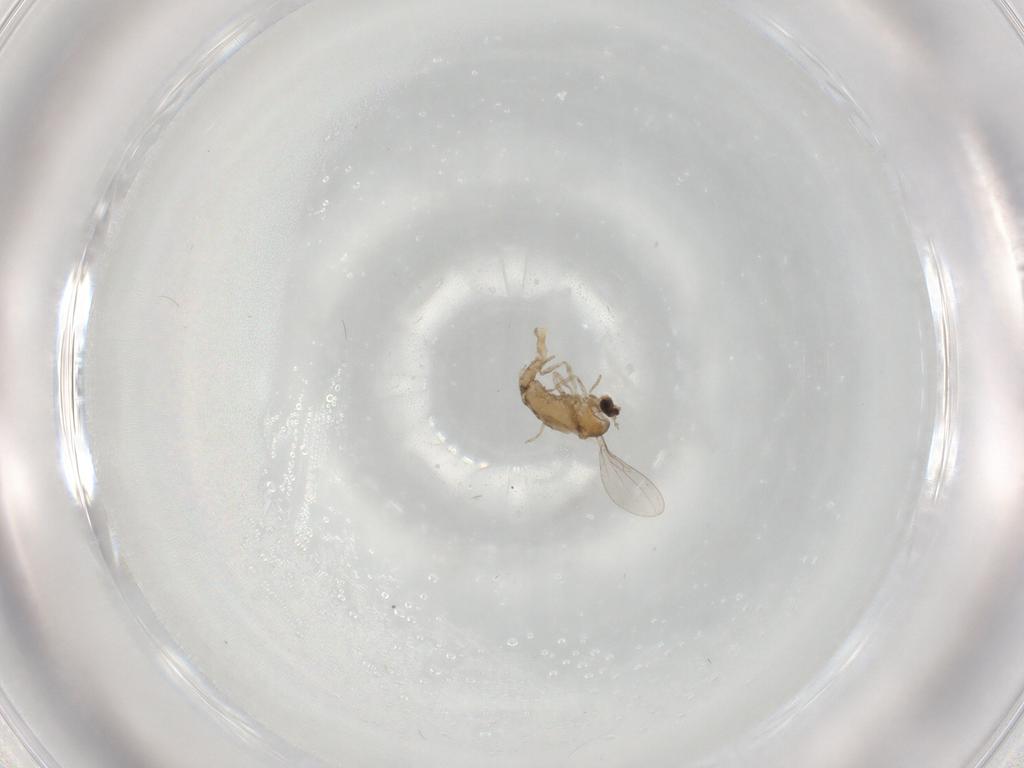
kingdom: Animalia
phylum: Arthropoda
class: Insecta
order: Diptera
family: Cecidomyiidae
